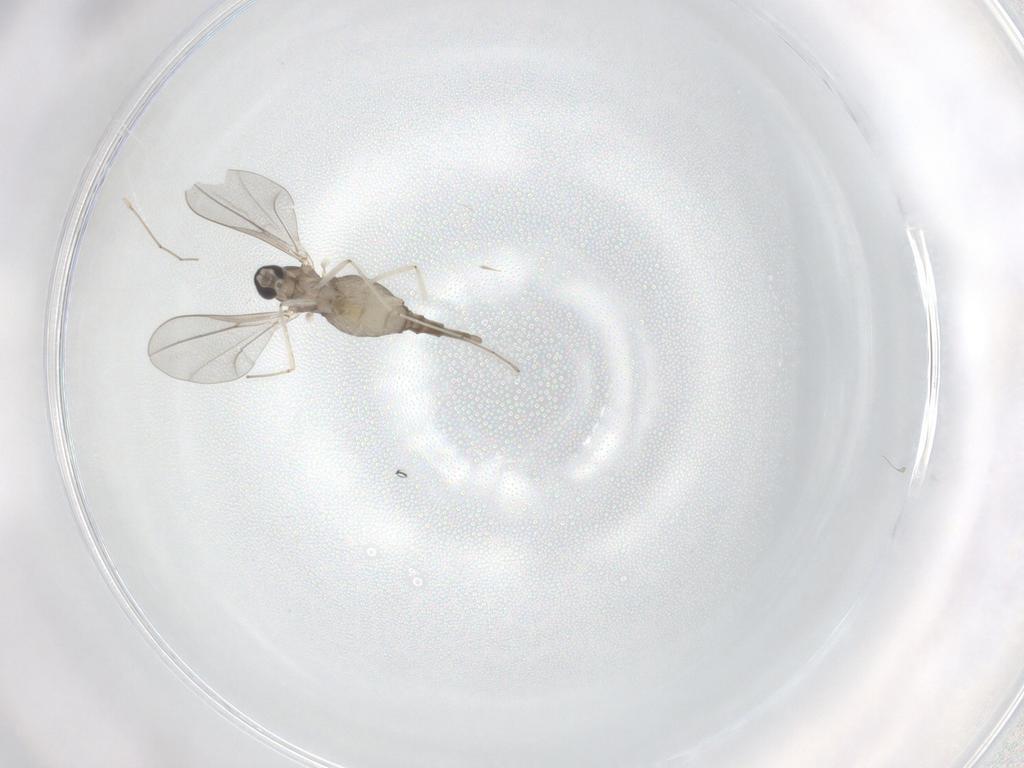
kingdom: Animalia
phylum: Arthropoda
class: Insecta
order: Diptera
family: Cecidomyiidae
